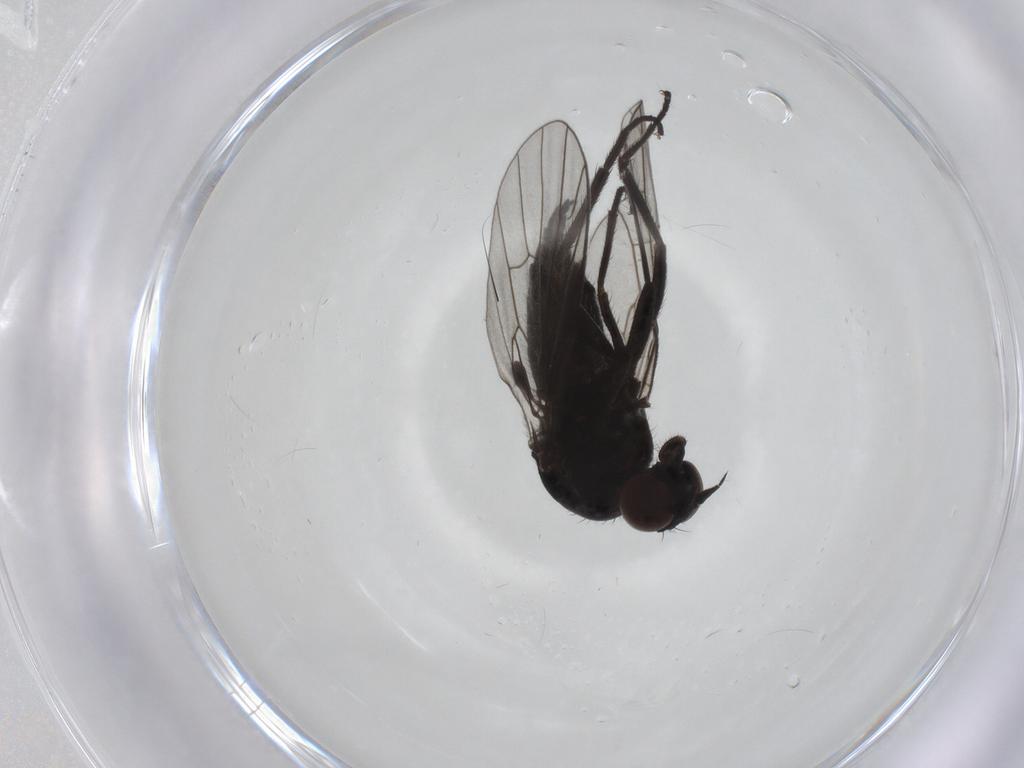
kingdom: Animalia
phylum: Arthropoda
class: Insecta
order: Diptera
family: Empididae
